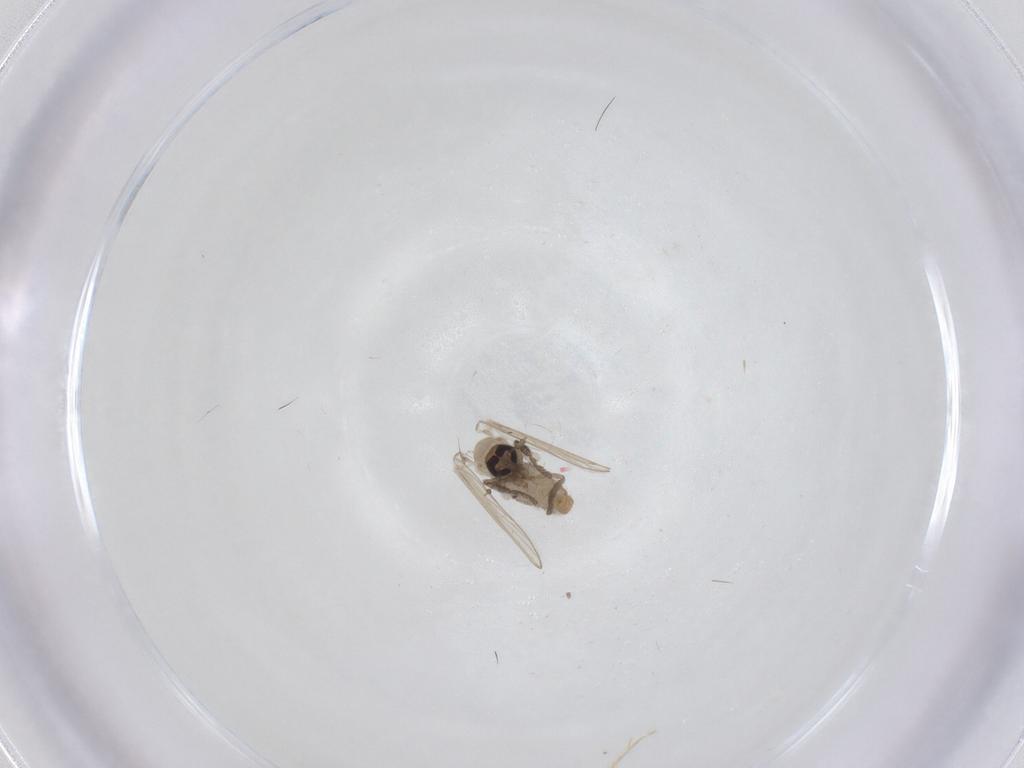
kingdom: Animalia
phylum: Arthropoda
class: Insecta
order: Diptera
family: Psychodidae
